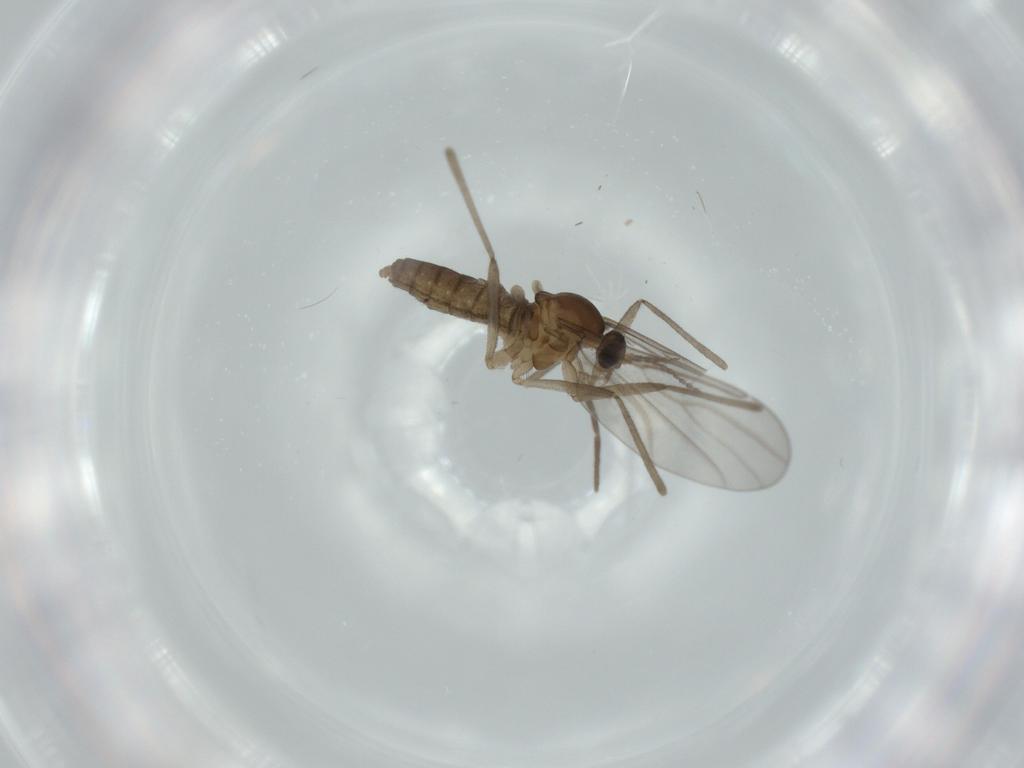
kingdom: Animalia
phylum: Arthropoda
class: Insecta
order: Diptera
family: Cecidomyiidae
